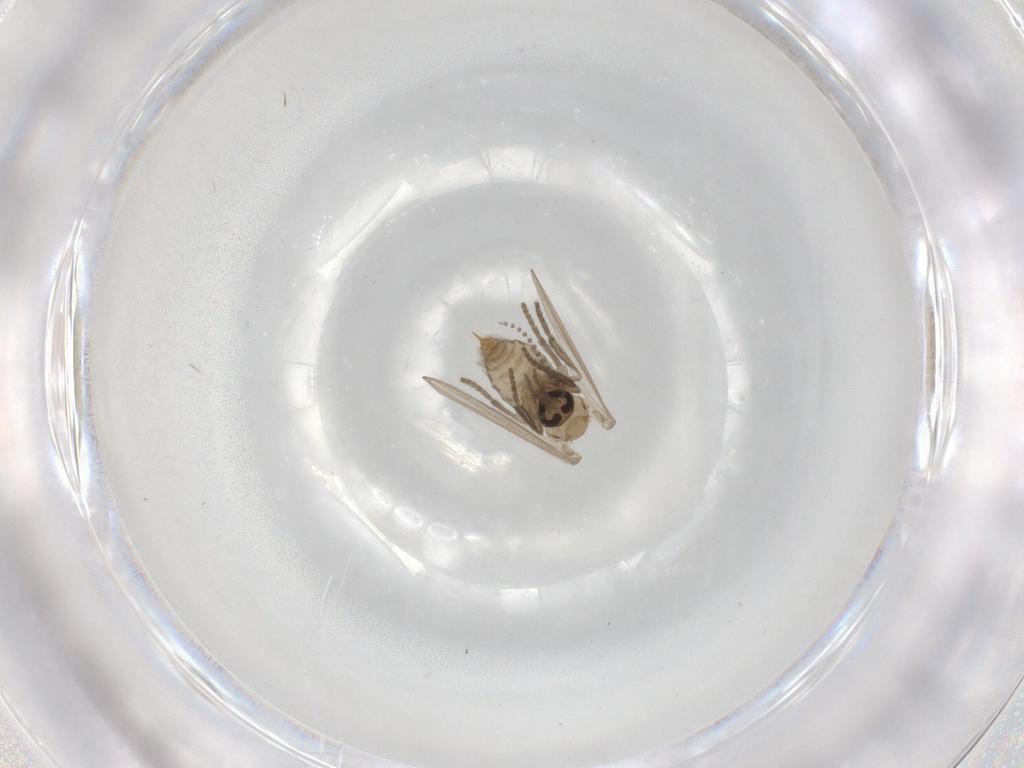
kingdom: Animalia
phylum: Arthropoda
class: Insecta
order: Diptera
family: Psychodidae
